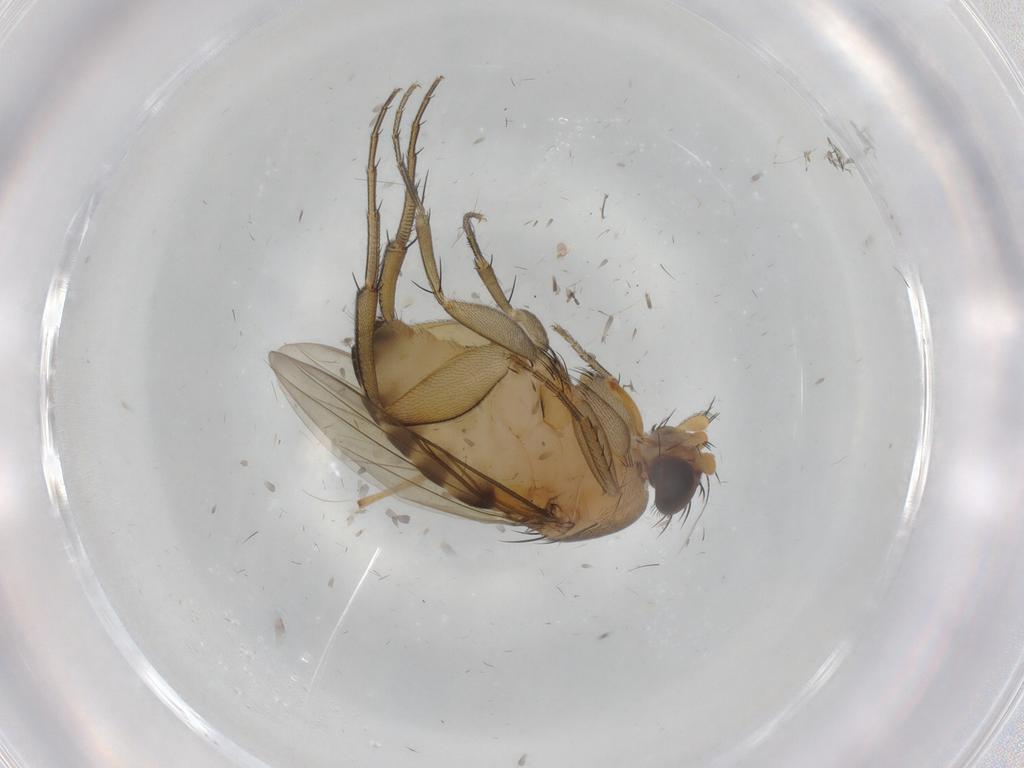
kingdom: Animalia
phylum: Arthropoda
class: Insecta
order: Diptera
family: Phoridae
